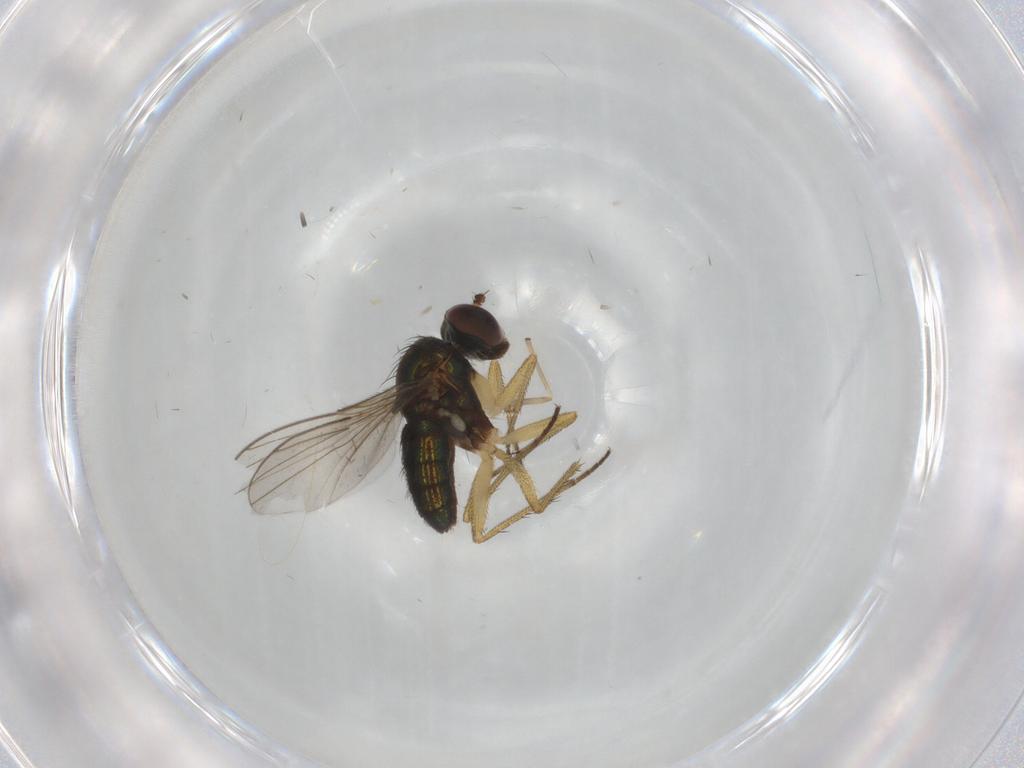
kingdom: Animalia
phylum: Arthropoda
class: Insecta
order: Diptera
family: Chironomidae
